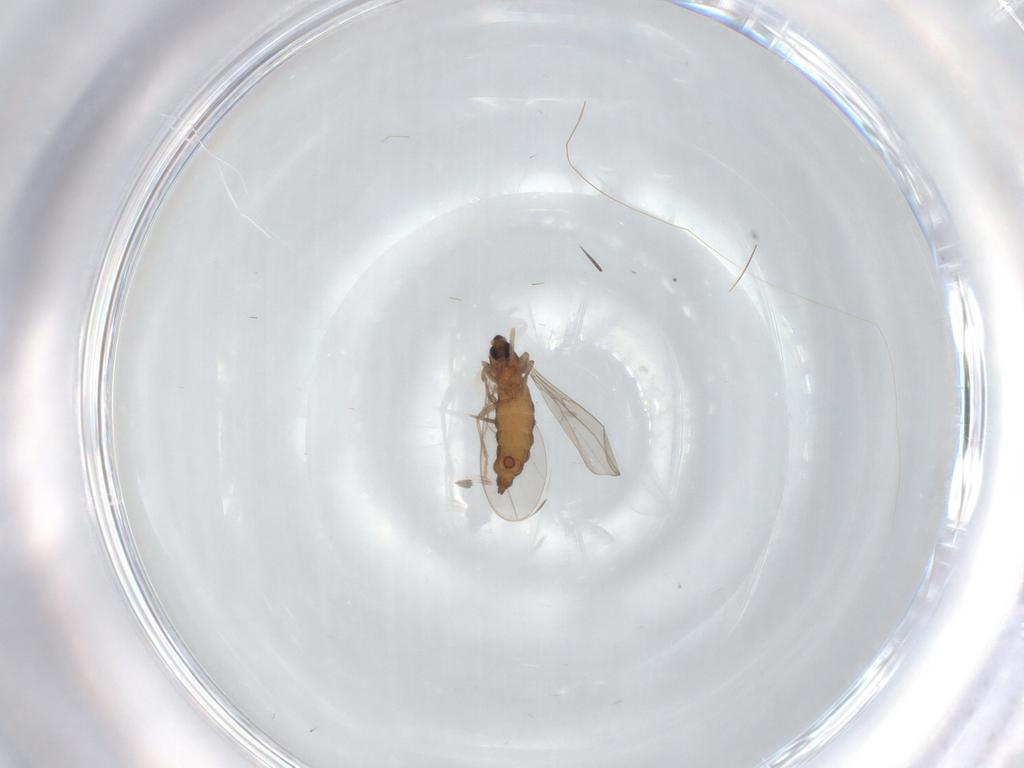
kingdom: Animalia
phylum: Arthropoda
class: Insecta
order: Diptera
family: Cecidomyiidae
